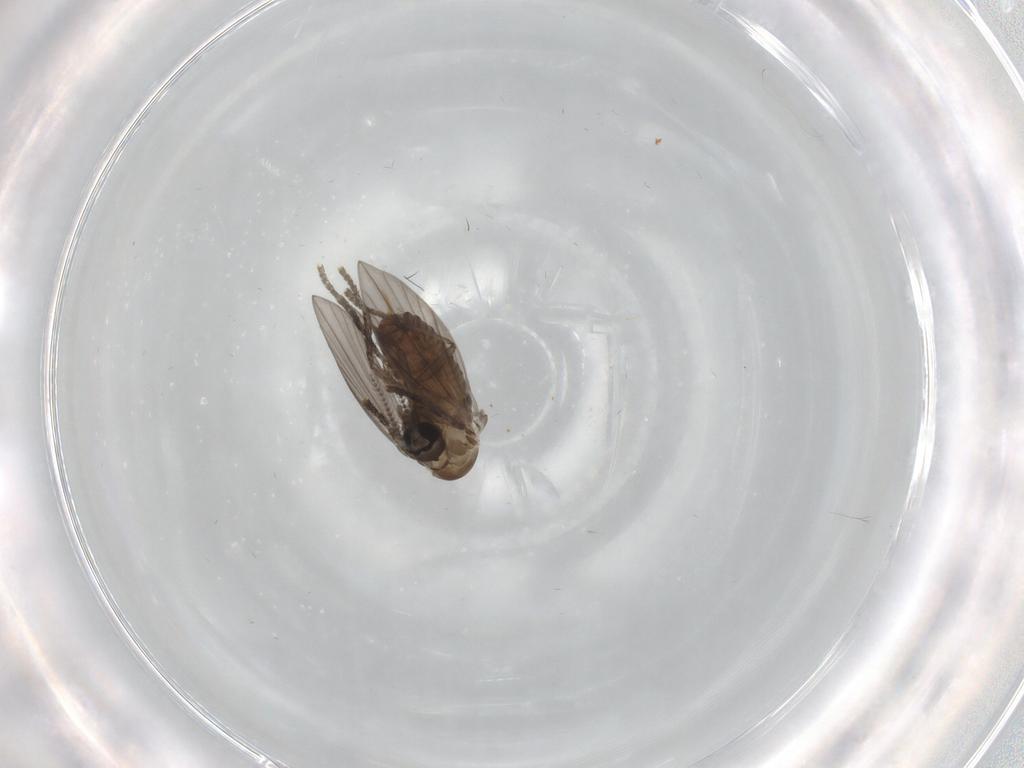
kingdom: Animalia
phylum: Arthropoda
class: Insecta
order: Diptera
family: Psychodidae
